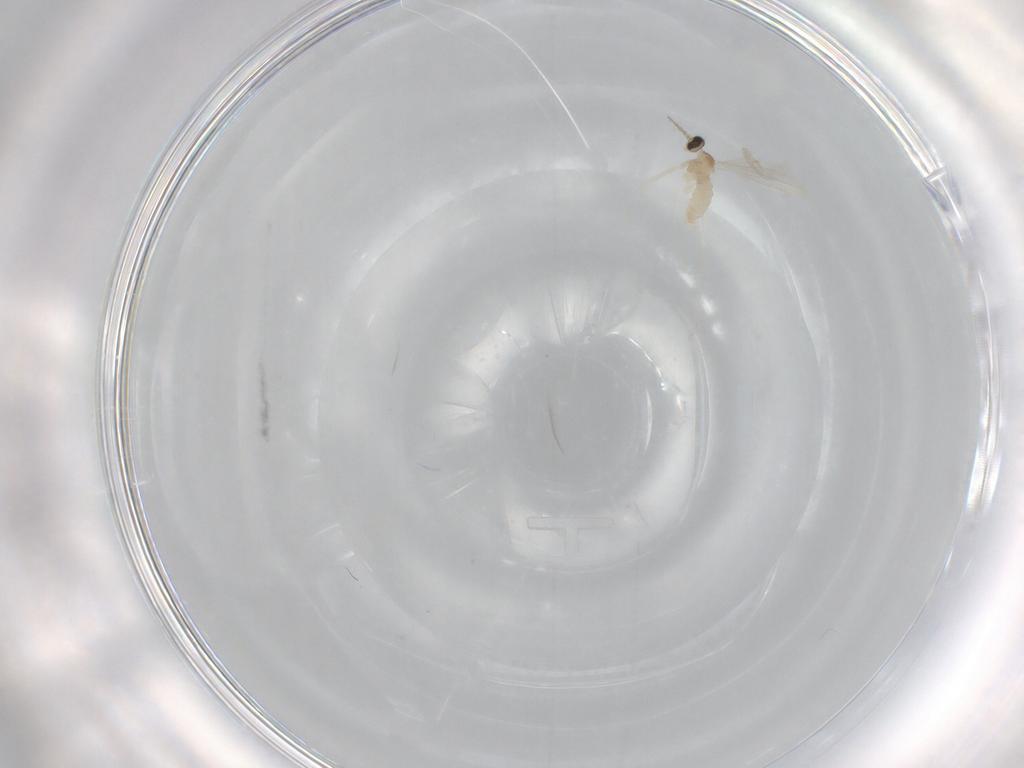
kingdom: Animalia
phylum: Arthropoda
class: Insecta
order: Diptera
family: Cecidomyiidae
